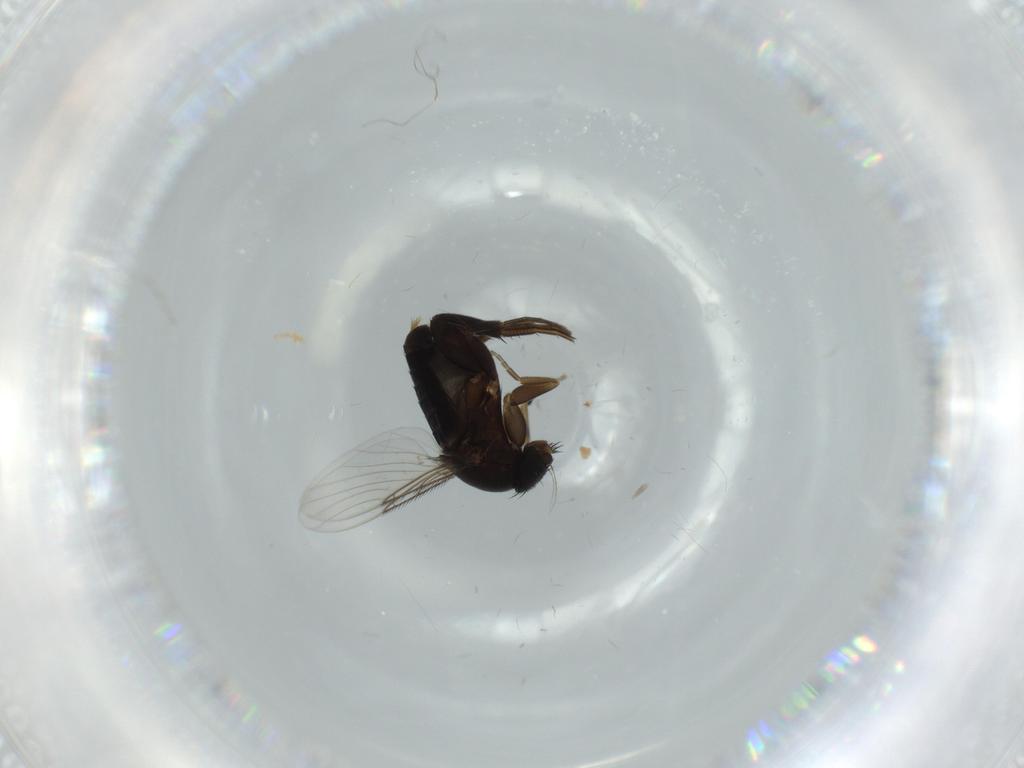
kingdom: Animalia
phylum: Arthropoda
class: Insecta
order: Diptera
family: Phoridae
